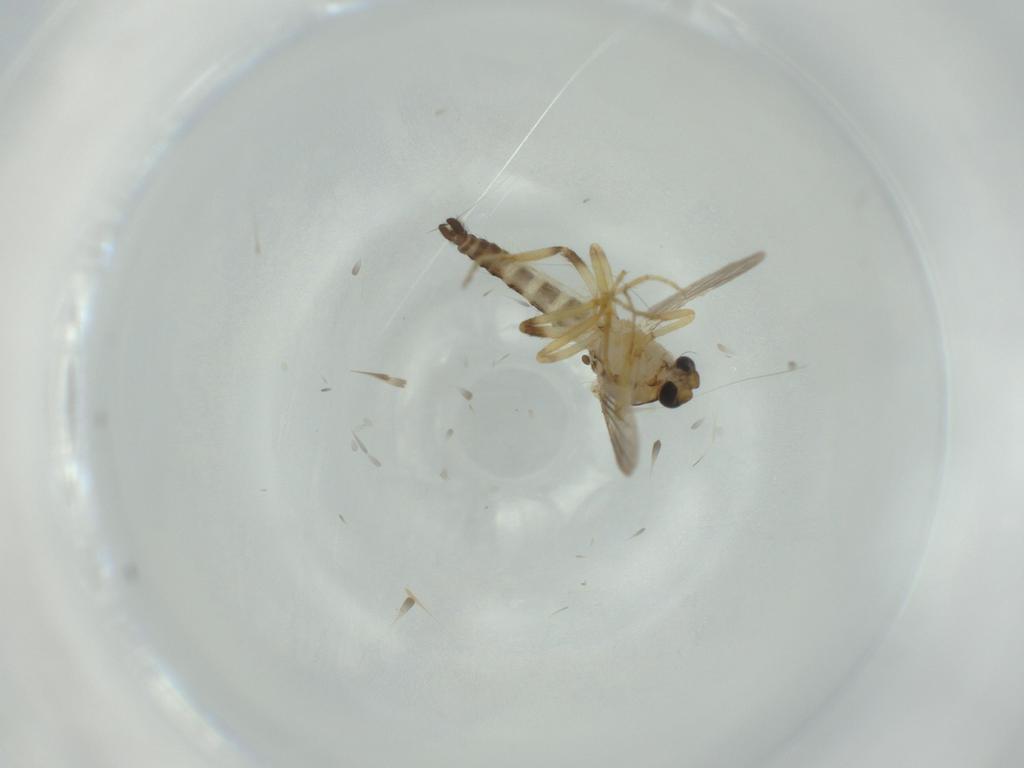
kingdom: Animalia
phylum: Arthropoda
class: Insecta
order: Diptera
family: Ceratopogonidae
